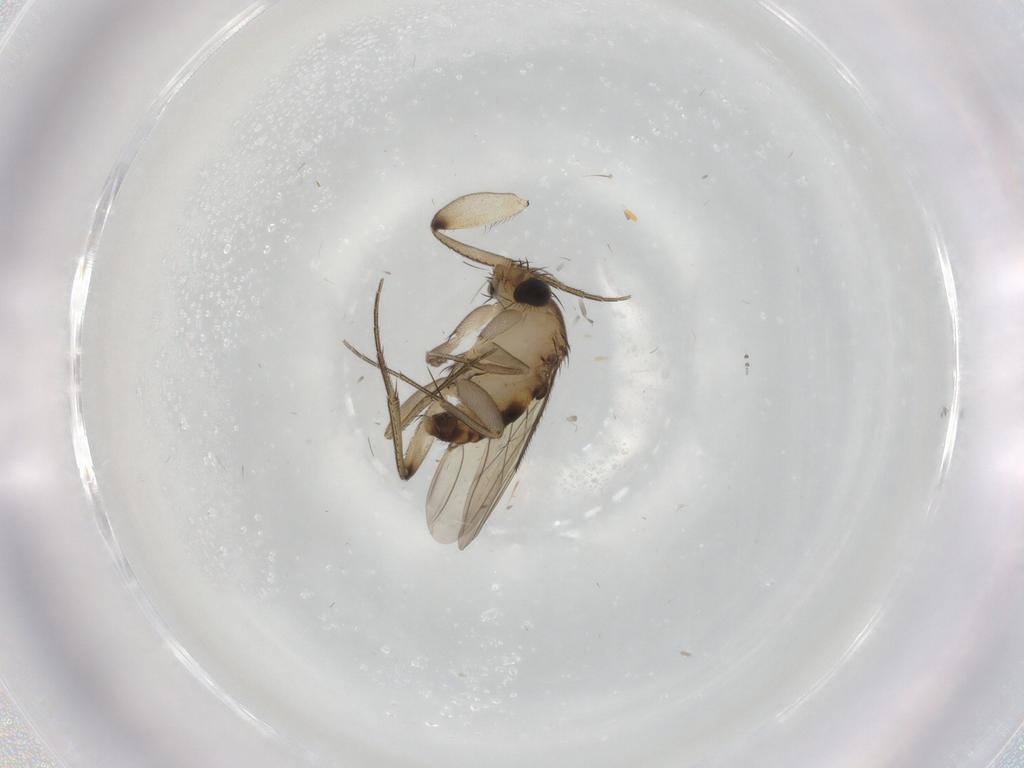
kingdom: Animalia
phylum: Arthropoda
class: Insecta
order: Diptera
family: Phoridae
